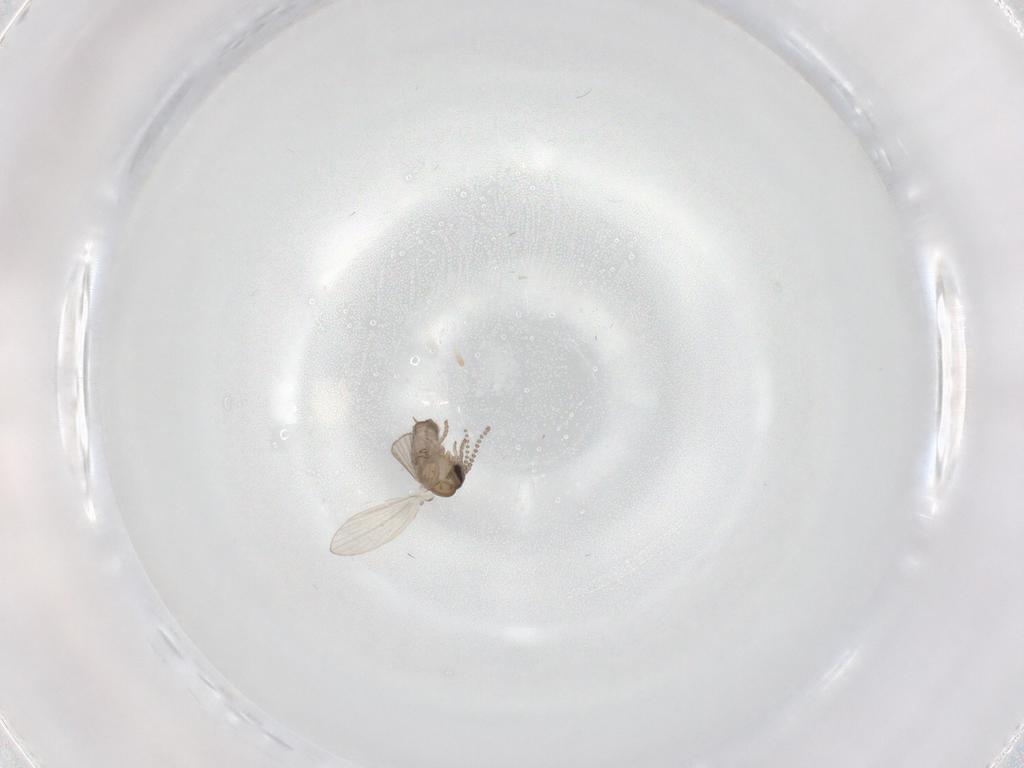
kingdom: Animalia
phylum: Arthropoda
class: Insecta
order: Diptera
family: Psychodidae
